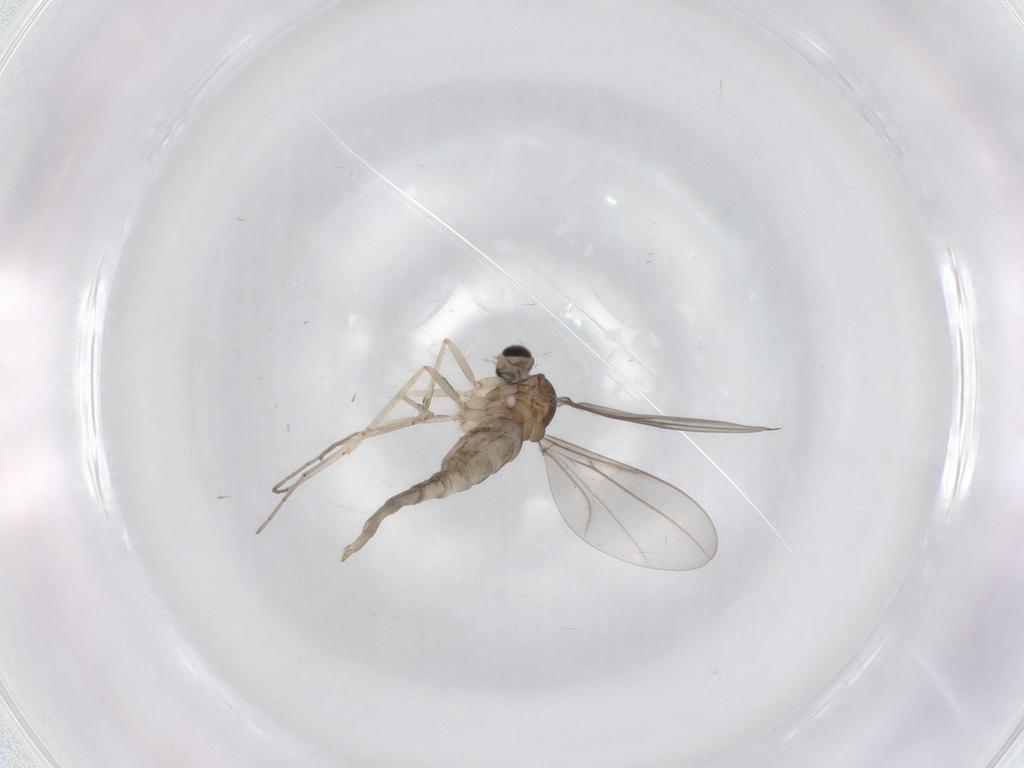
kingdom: Animalia
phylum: Arthropoda
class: Insecta
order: Diptera
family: Cecidomyiidae
